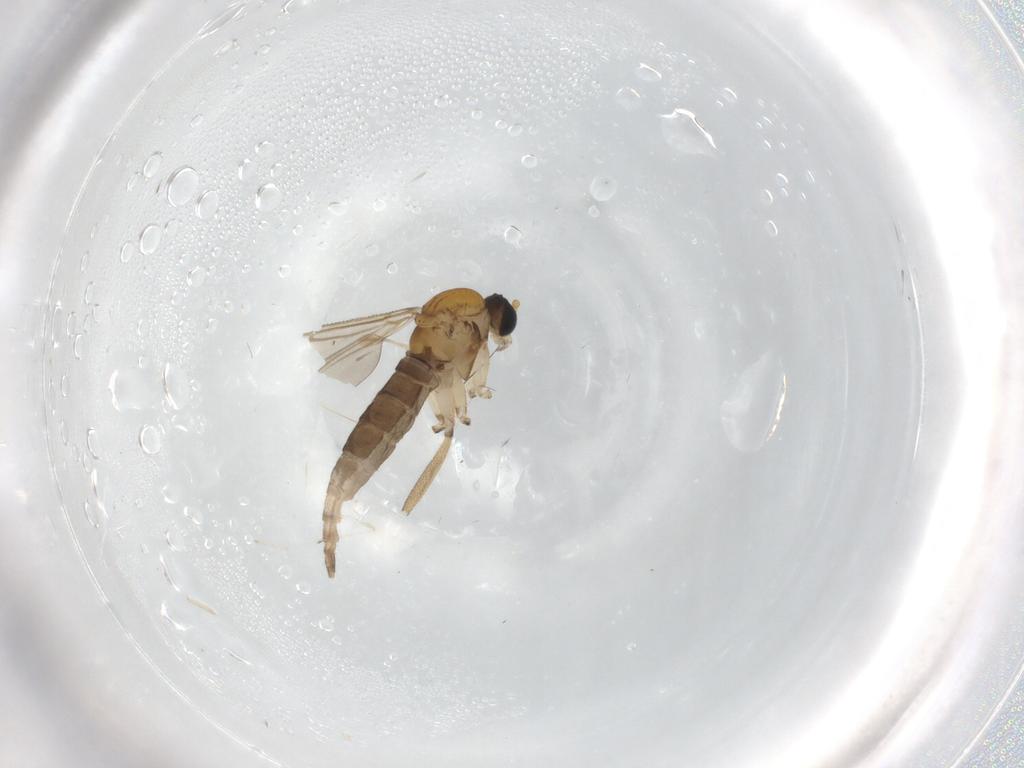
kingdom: Animalia
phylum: Arthropoda
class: Insecta
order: Diptera
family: Sciaridae
